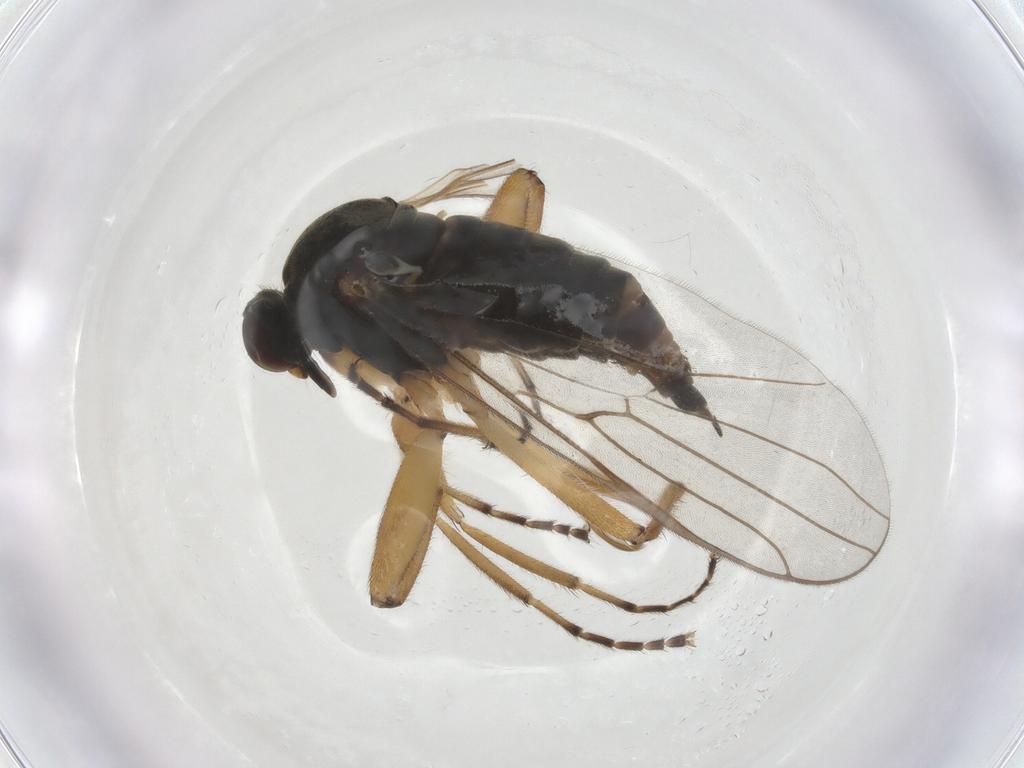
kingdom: Animalia
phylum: Arthropoda
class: Insecta
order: Diptera
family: Hybotidae
